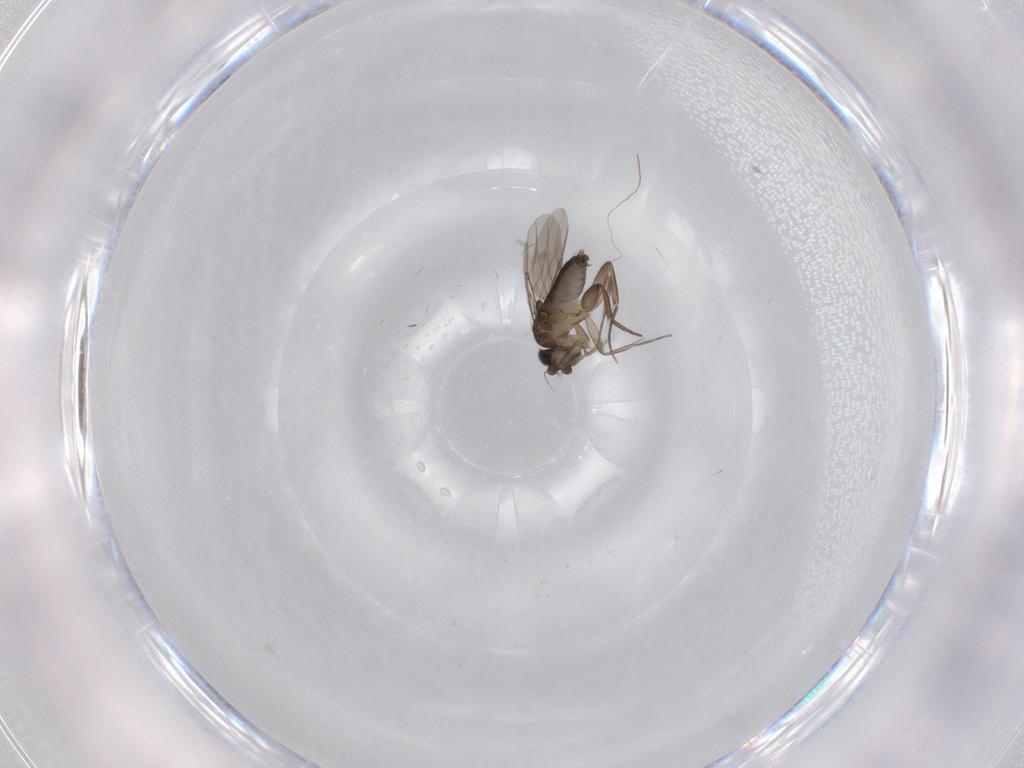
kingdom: Animalia
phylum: Arthropoda
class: Insecta
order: Diptera
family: Phoridae
